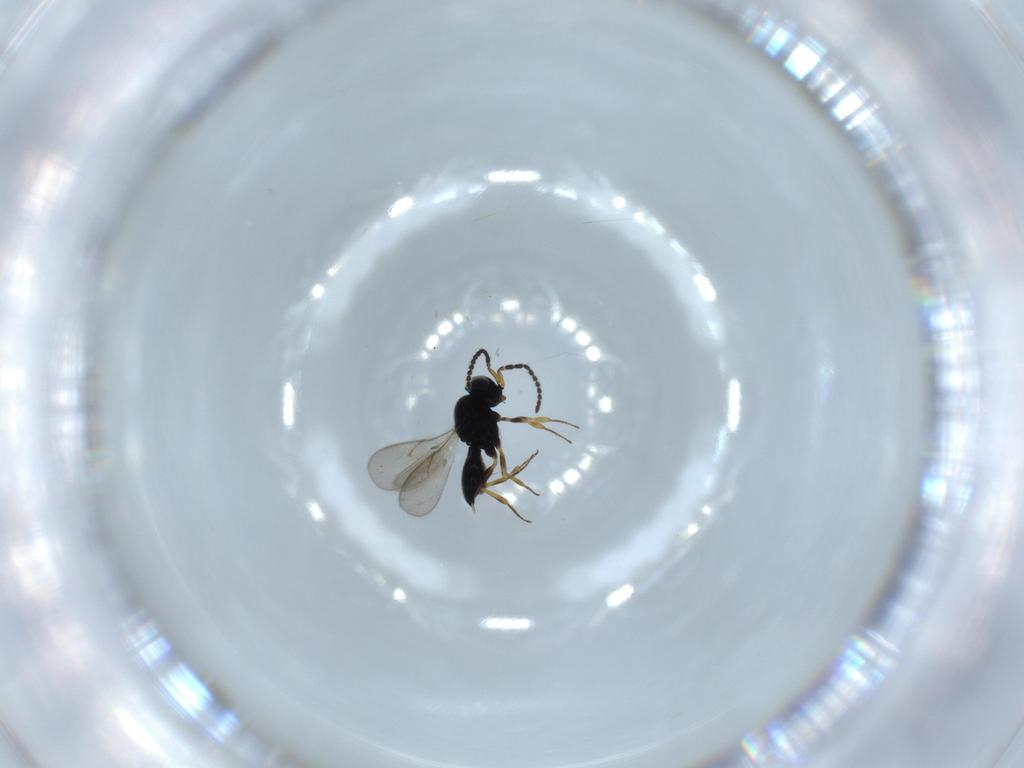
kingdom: Animalia
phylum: Arthropoda
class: Insecta
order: Hymenoptera
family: Scelionidae
